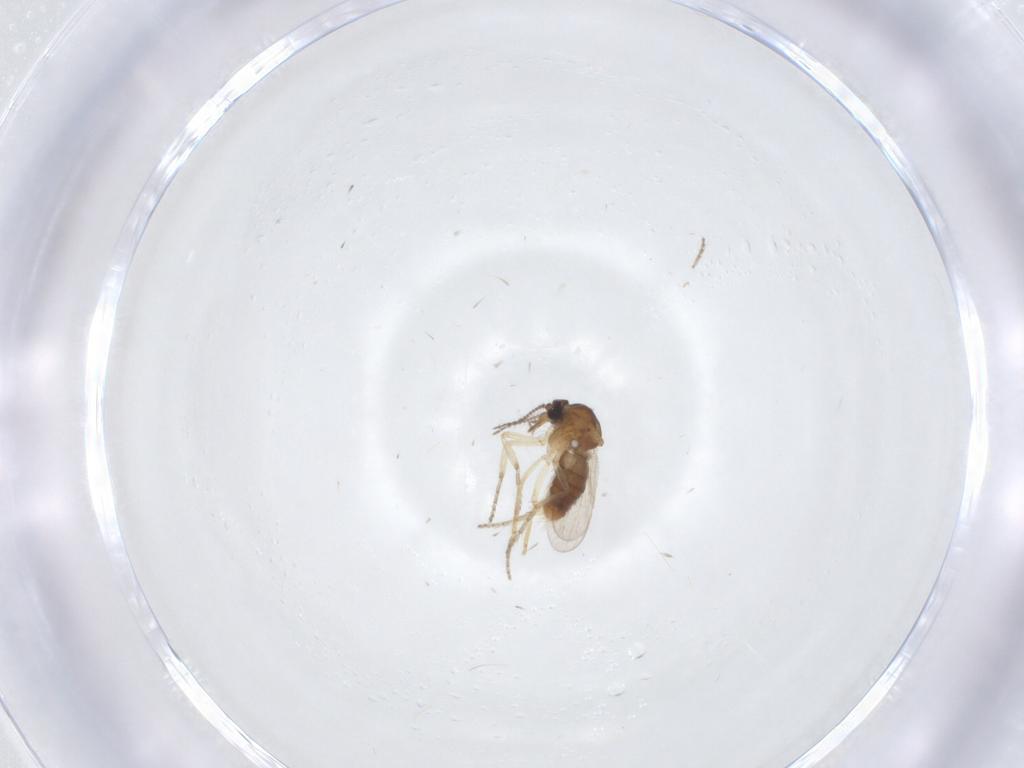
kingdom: Animalia
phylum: Arthropoda
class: Insecta
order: Diptera
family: Ceratopogonidae
